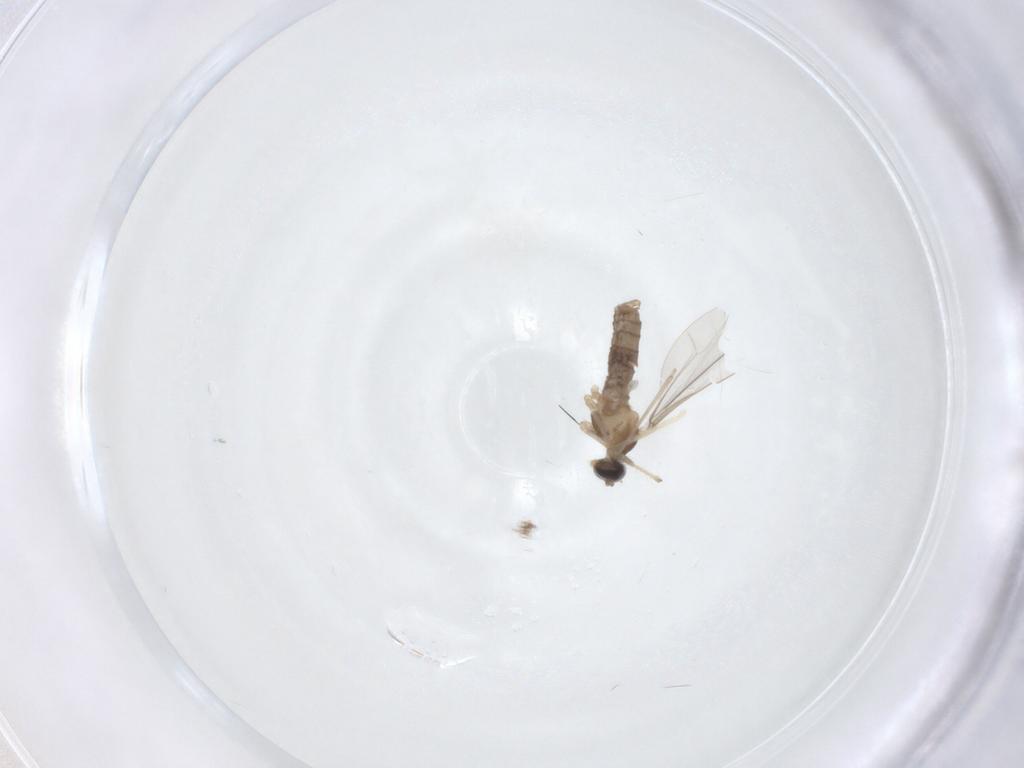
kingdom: Animalia
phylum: Arthropoda
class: Insecta
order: Diptera
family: Cecidomyiidae
